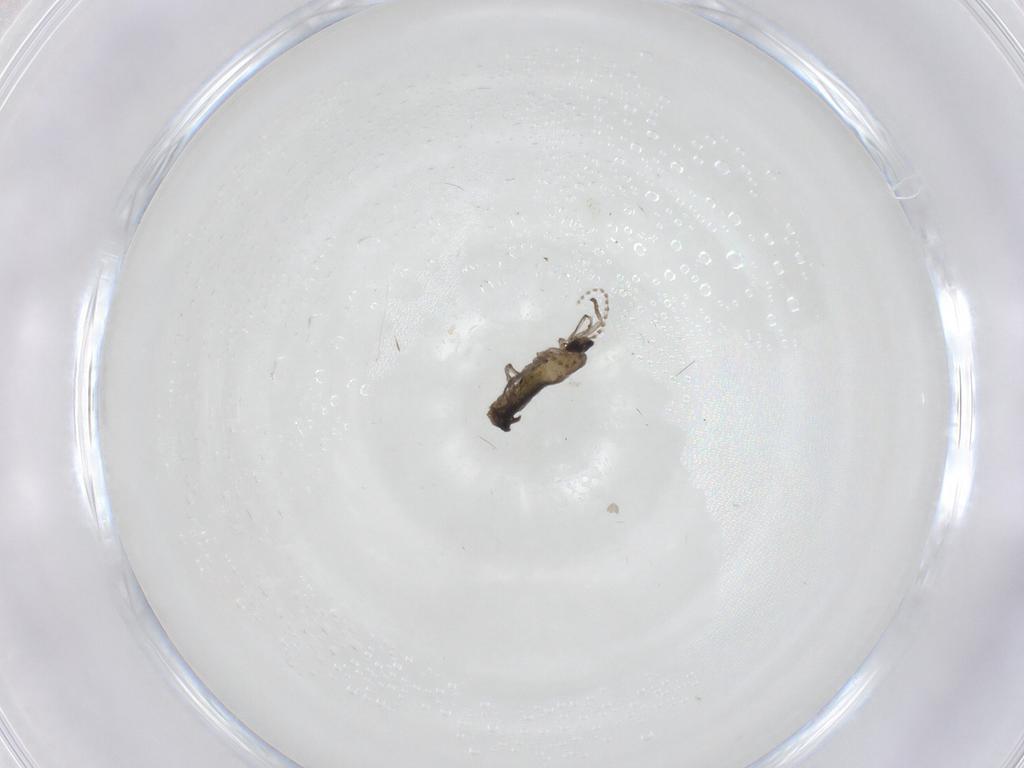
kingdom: Animalia
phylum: Arthropoda
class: Insecta
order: Diptera
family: Cecidomyiidae
